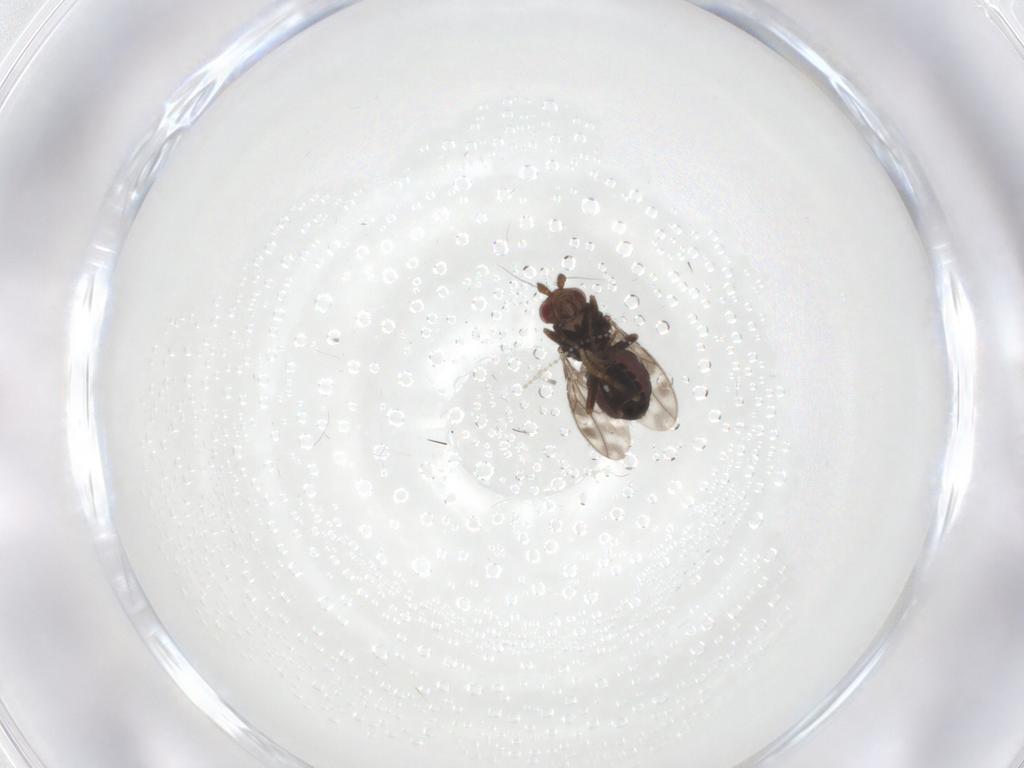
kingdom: Animalia
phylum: Arthropoda
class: Insecta
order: Diptera
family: Sphaeroceridae
